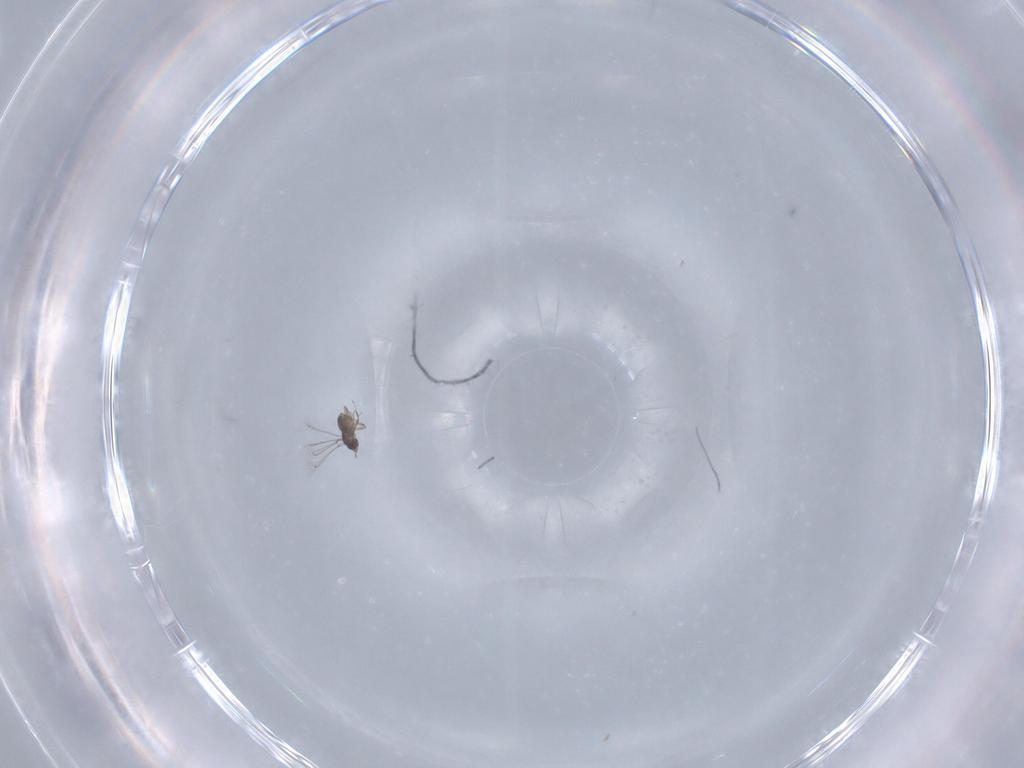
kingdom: Animalia
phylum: Arthropoda
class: Insecta
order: Hymenoptera
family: Megastigmidae
